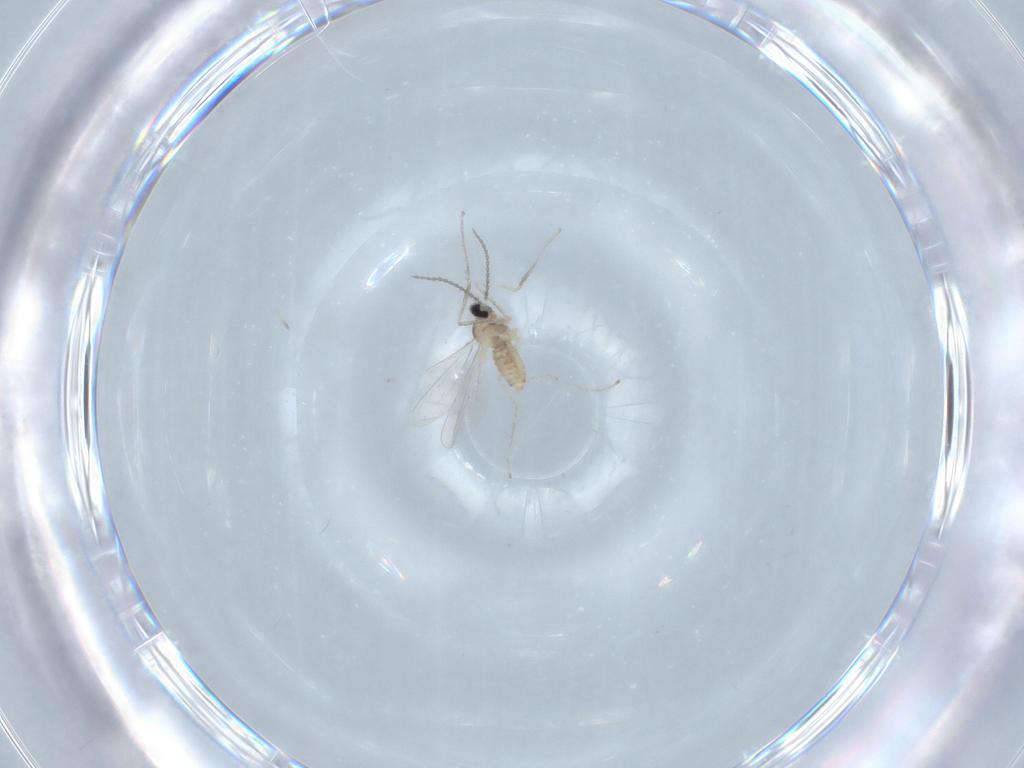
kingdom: Animalia
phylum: Arthropoda
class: Insecta
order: Diptera
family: Cecidomyiidae
